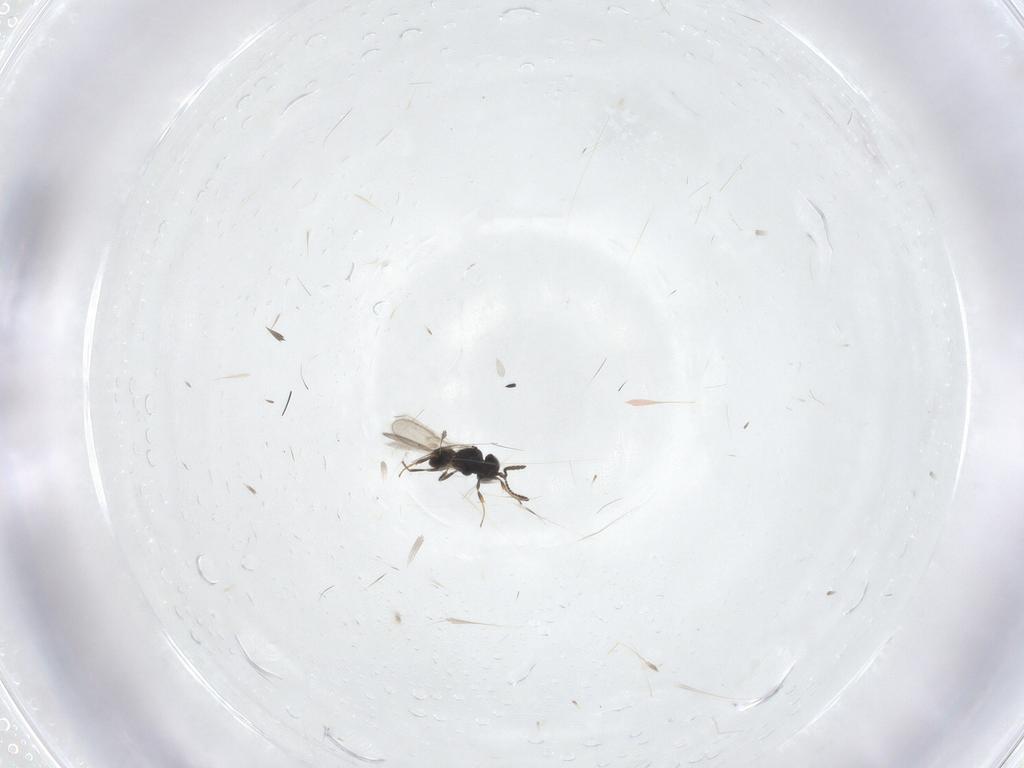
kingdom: Animalia
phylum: Arthropoda
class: Insecta
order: Hymenoptera
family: Scelionidae
